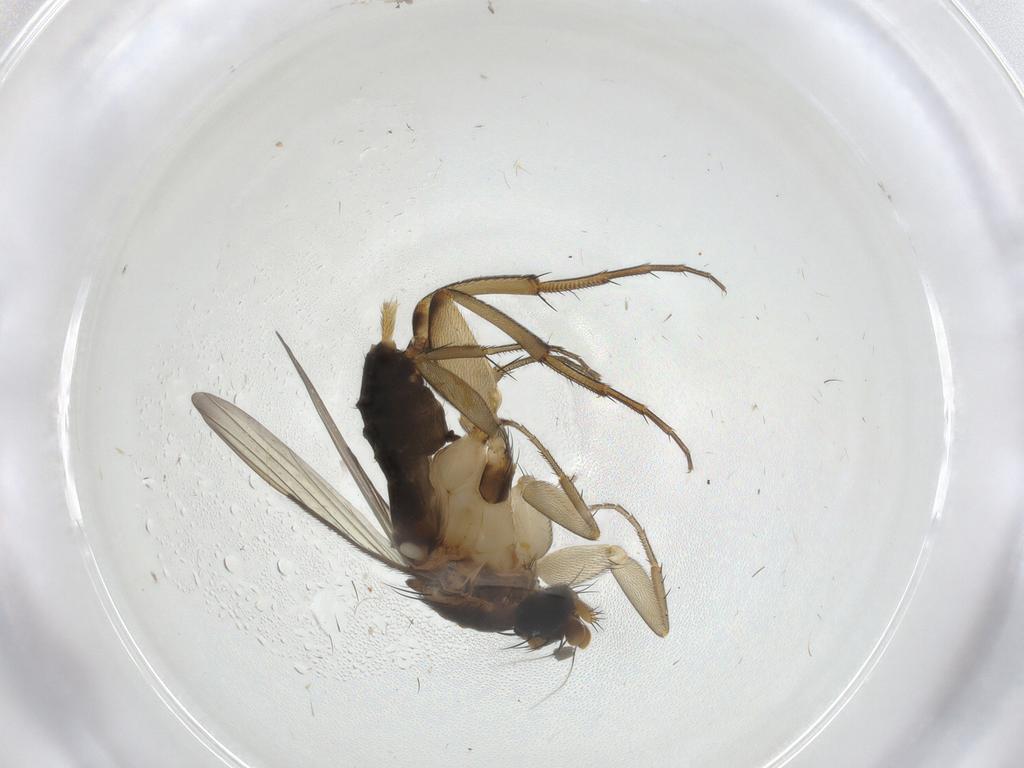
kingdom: Animalia
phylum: Arthropoda
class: Insecta
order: Diptera
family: Phoridae
